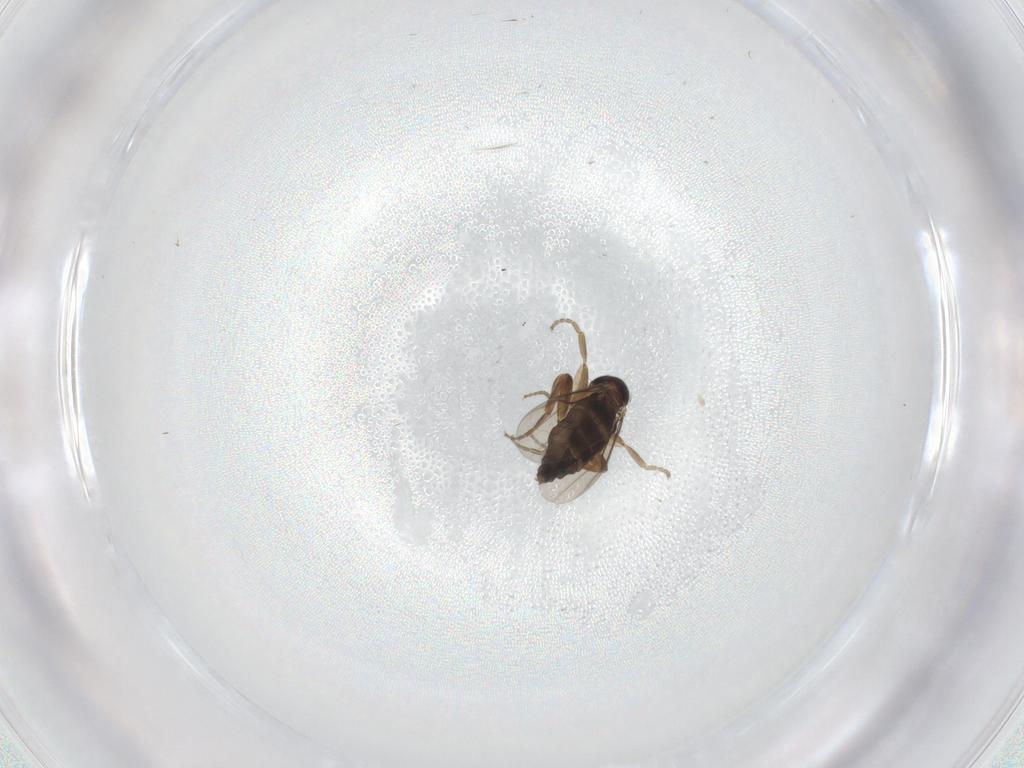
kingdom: Animalia
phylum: Arthropoda
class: Insecta
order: Diptera
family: Phoridae
